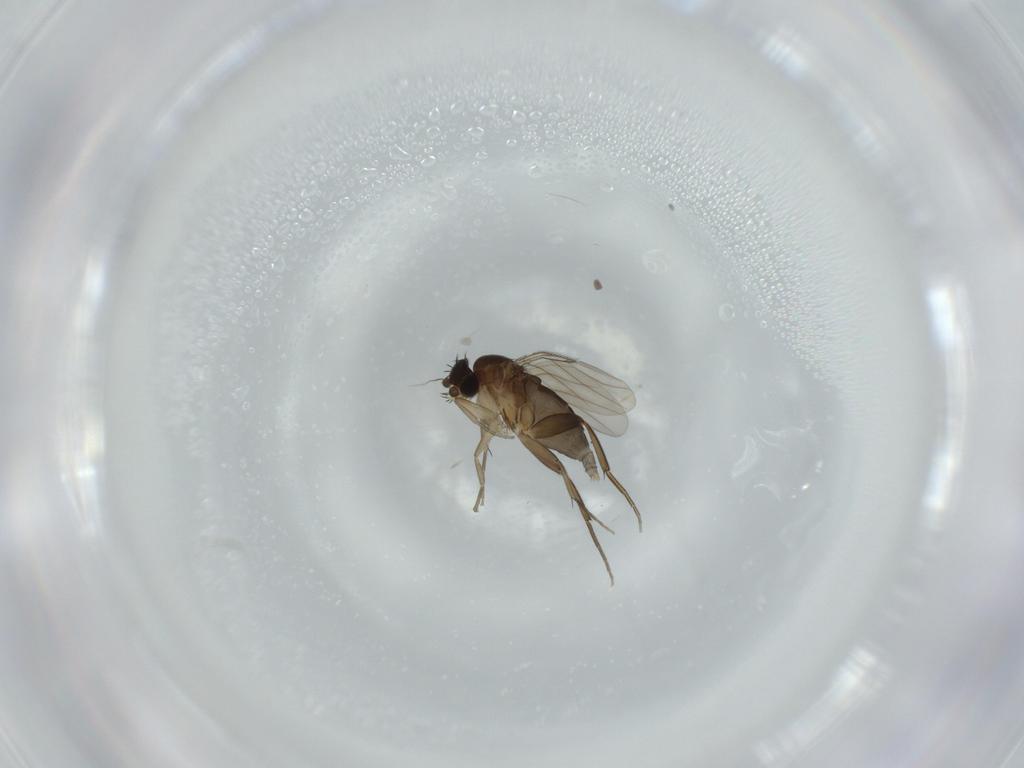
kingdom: Animalia
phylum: Arthropoda
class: Insecta
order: Diptera
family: Phoridae
